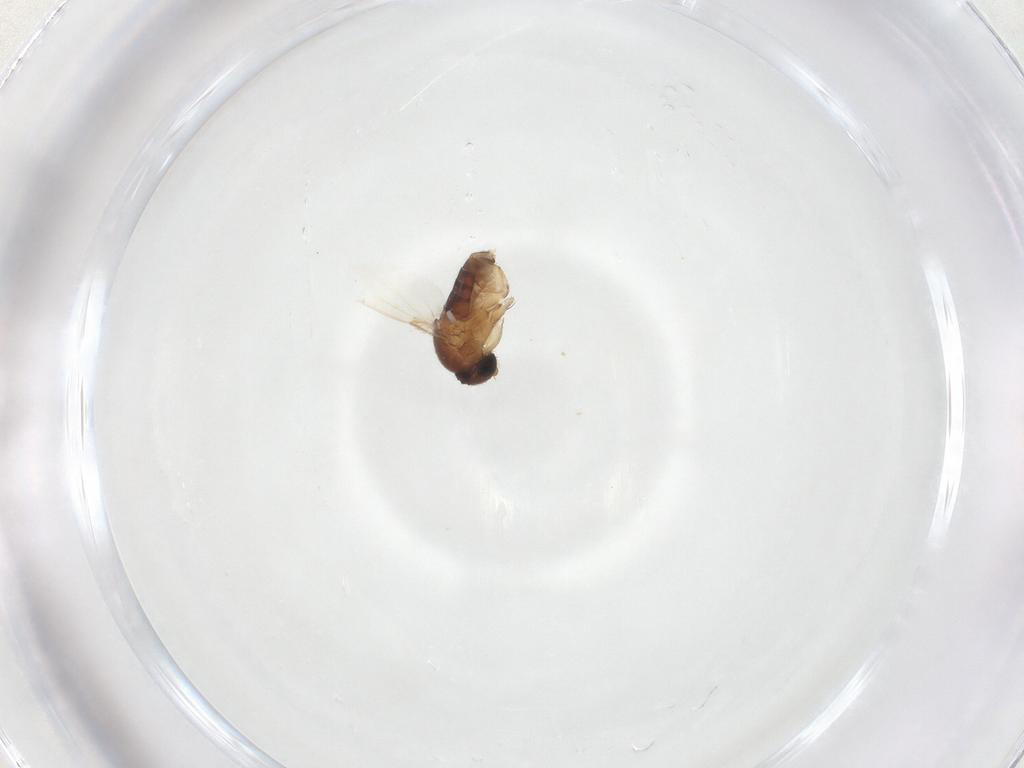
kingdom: Animalia
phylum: Arthropoda
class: Insecta
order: Diptera
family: Phoridae
